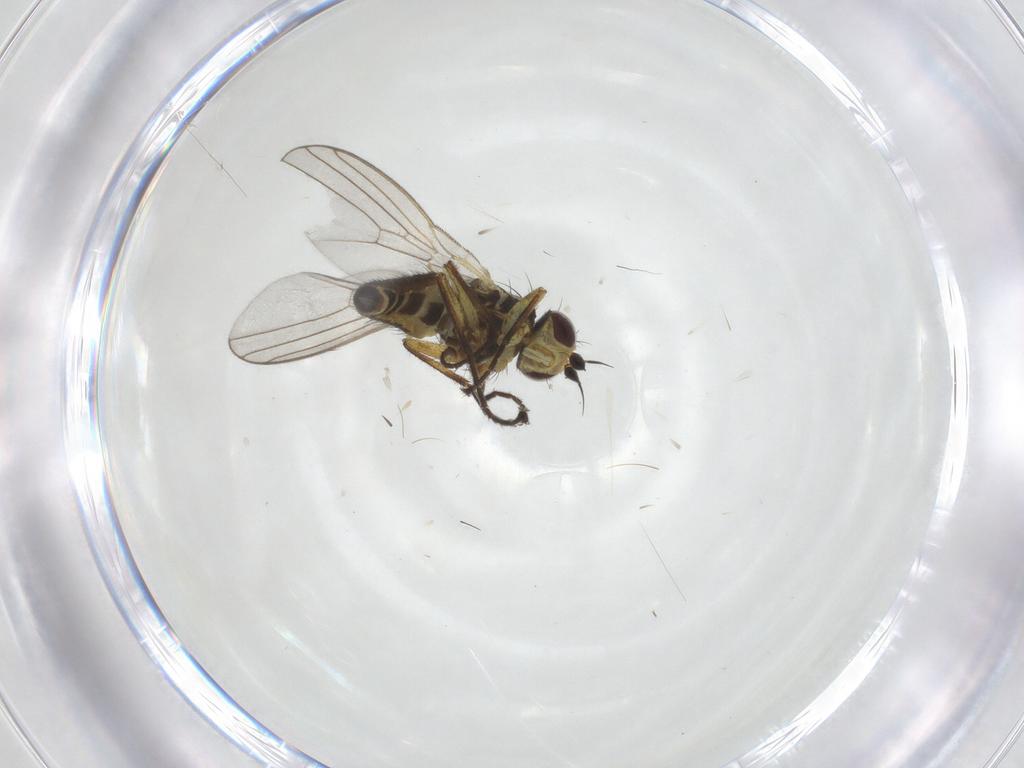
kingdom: Animalia
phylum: Arthropoda
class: Insecta
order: Diptera
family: Agromyzidae
